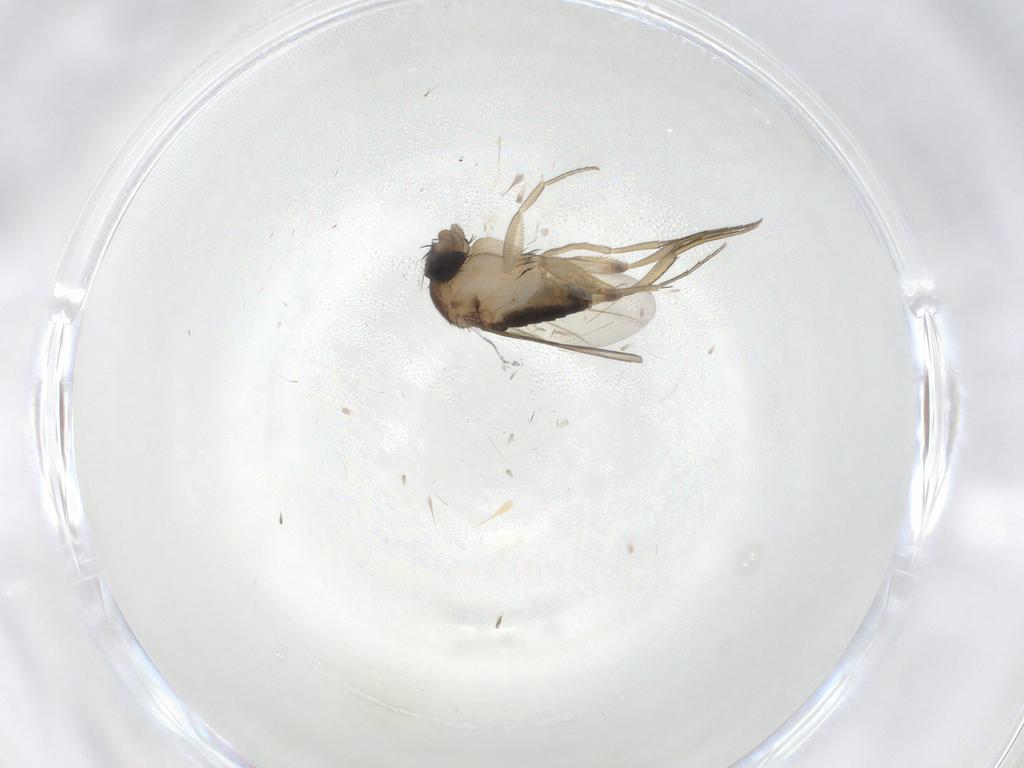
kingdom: Animalia
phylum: Arthropoda
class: Insecta
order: Diptera
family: Phoridae
